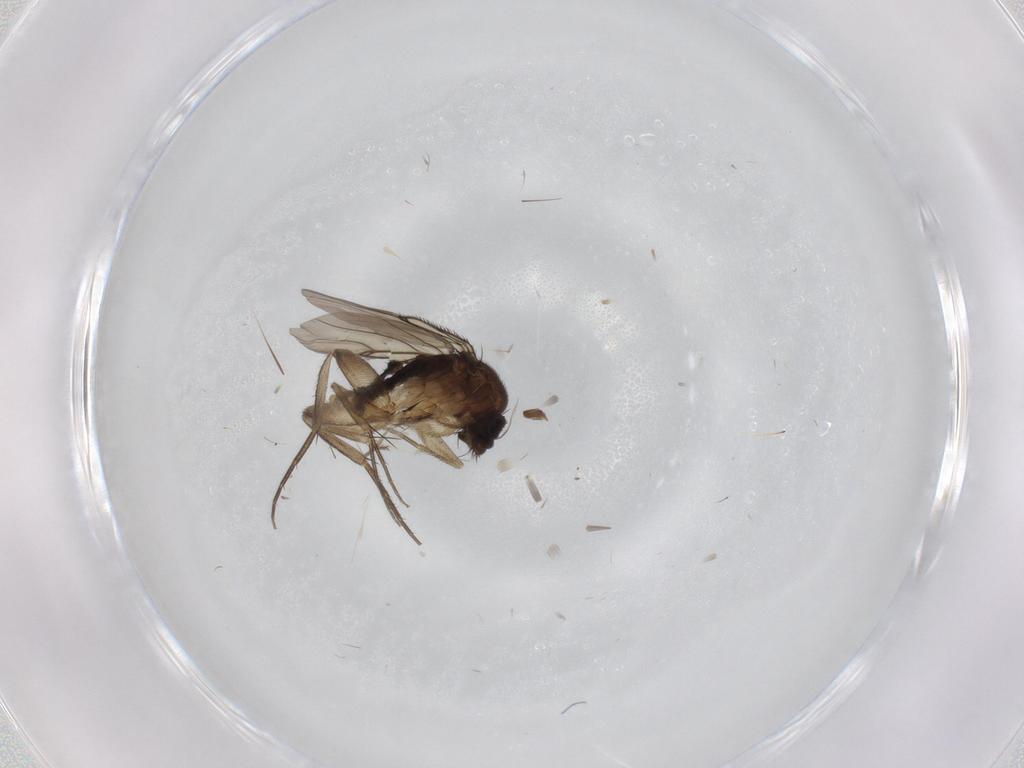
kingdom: Animalia
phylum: Arthropoda
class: Insecta
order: Diptera
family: Phoridae
